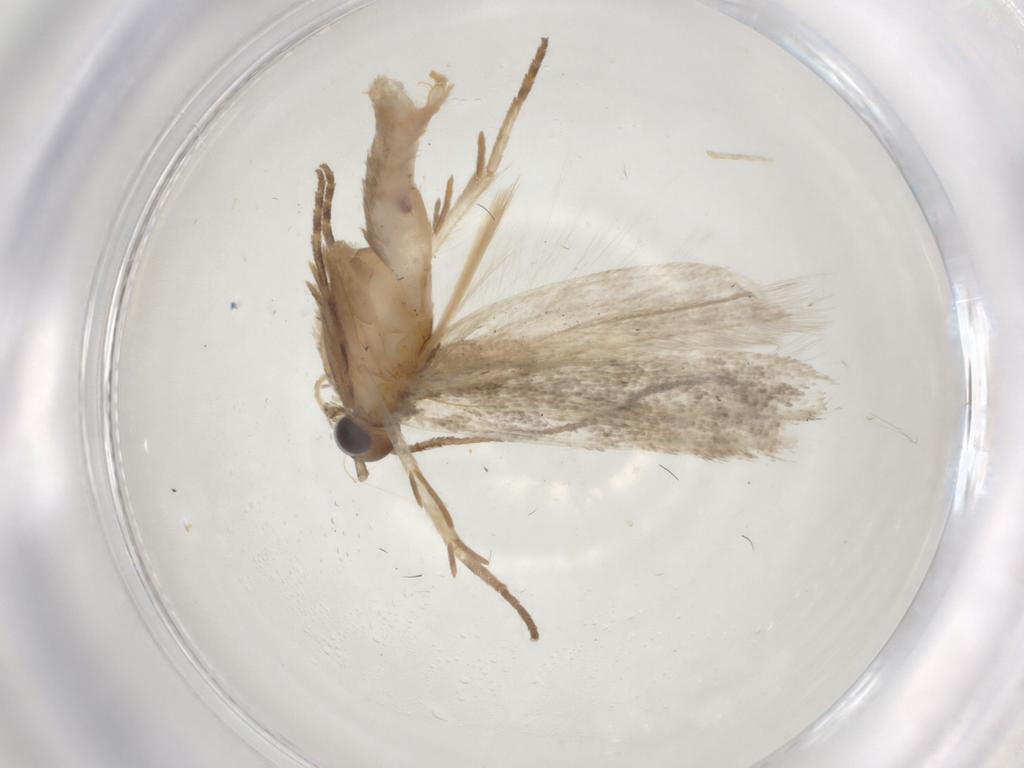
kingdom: Animalia
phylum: Arthropoda
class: Insecta
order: Lepidoptera
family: Gelechiidae
